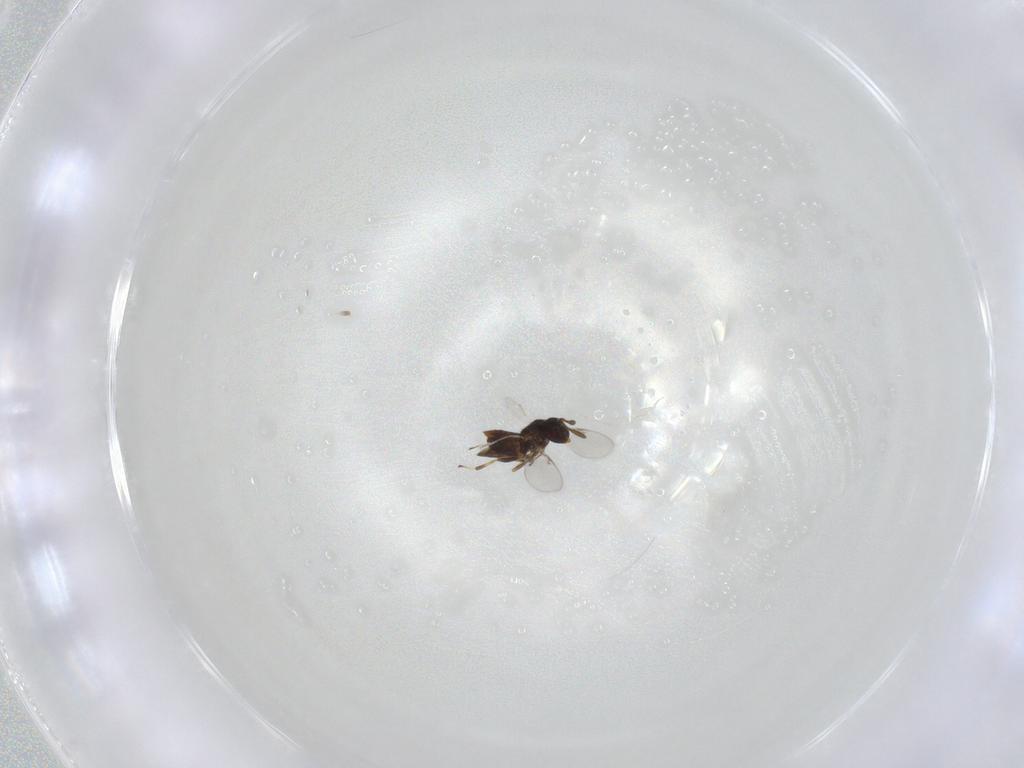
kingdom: Animalia
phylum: Arthropoda
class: Insecta
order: Hymenoptera
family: Encyrtidae
